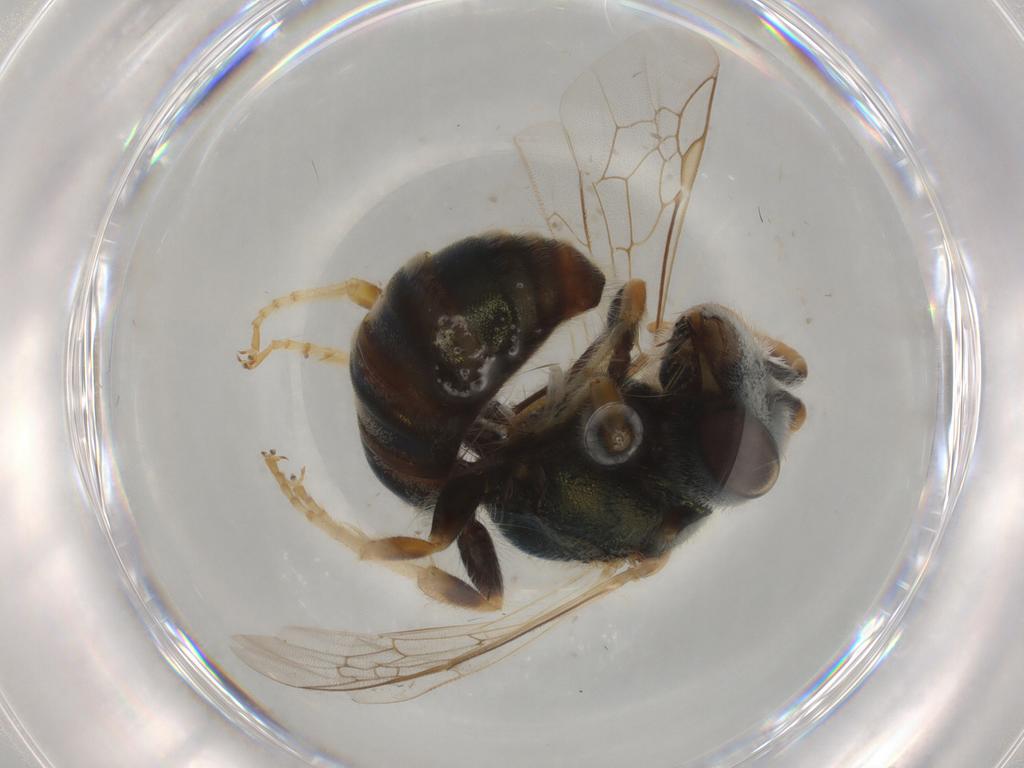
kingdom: Animalia
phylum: Arthropoda
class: Insecta
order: Hymenoptera
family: Halictidae
